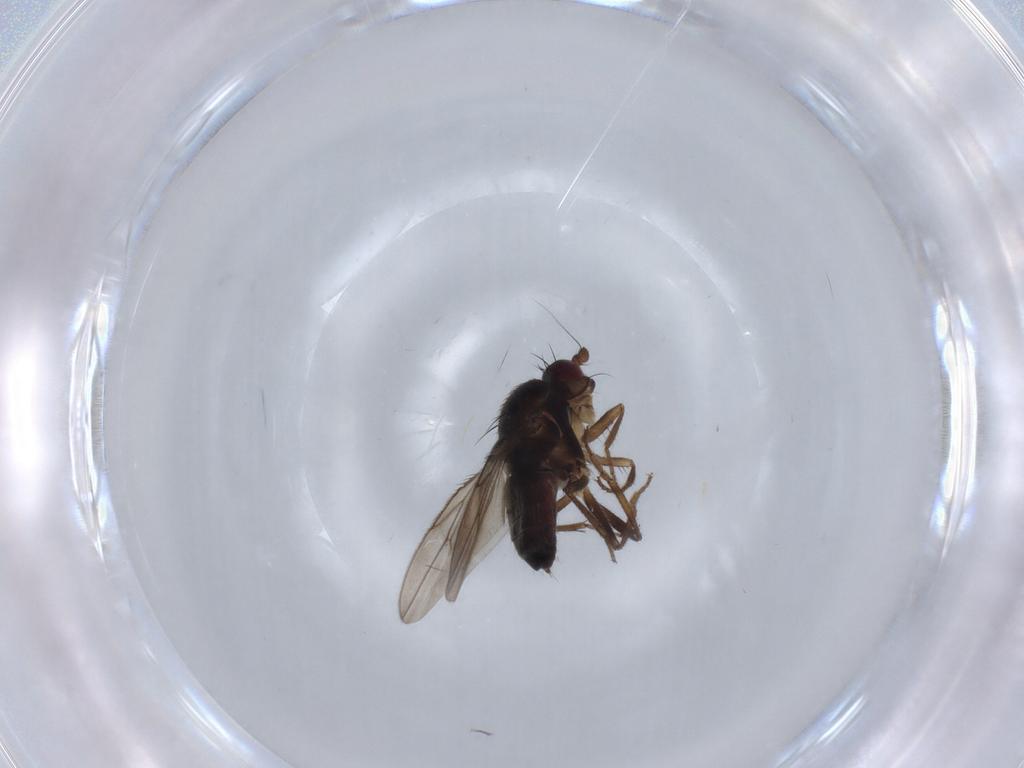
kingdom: Animalia
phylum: Arthropoda
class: Insecta
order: Diptera
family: Sphaeroceridae
